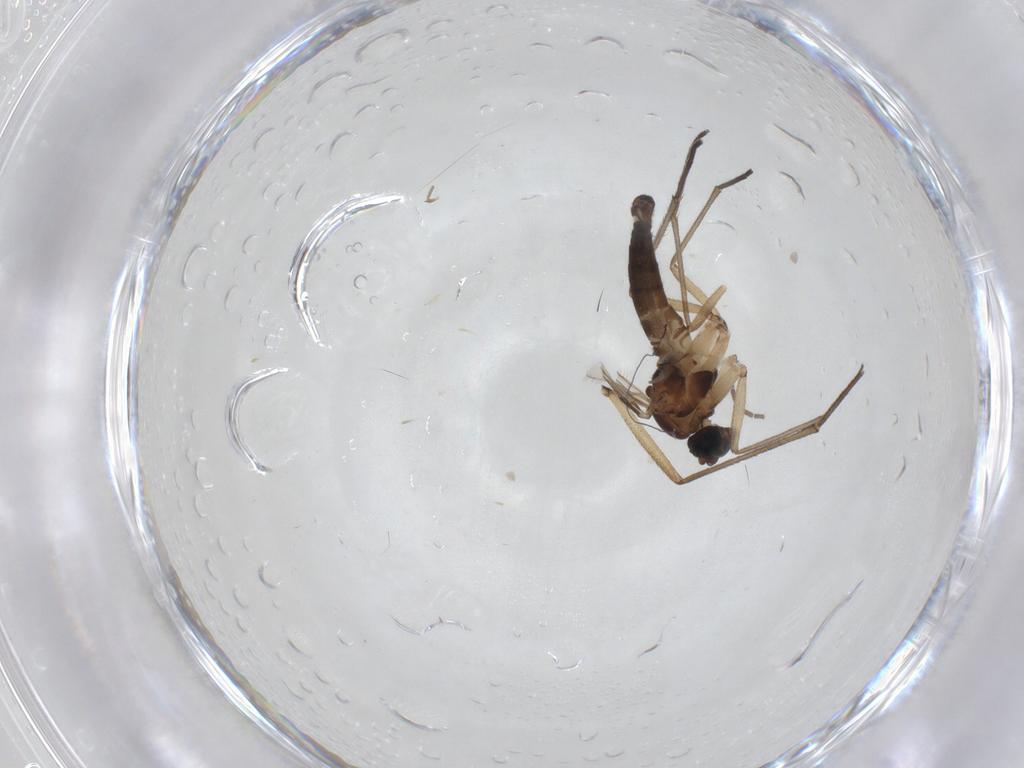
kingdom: Animalia
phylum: Arthropoda
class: Insecta
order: Diptera
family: Sciaridae
